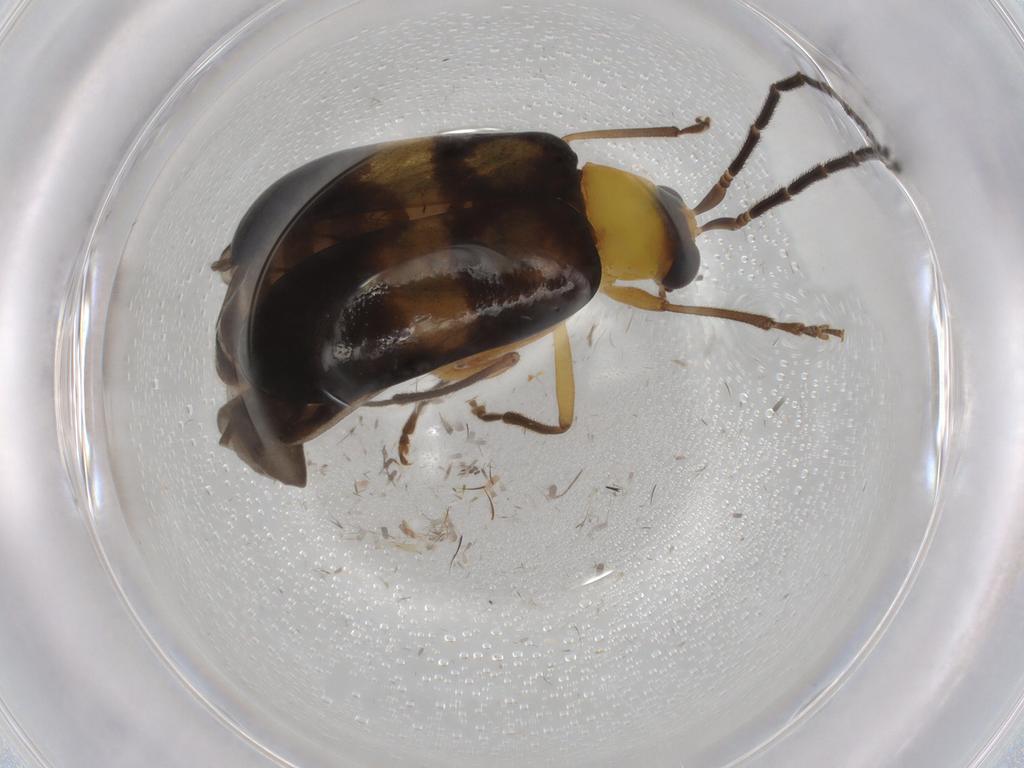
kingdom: Animalia
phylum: Arthropoda
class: Insecta
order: Coleoptera
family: Chrysomelidae
